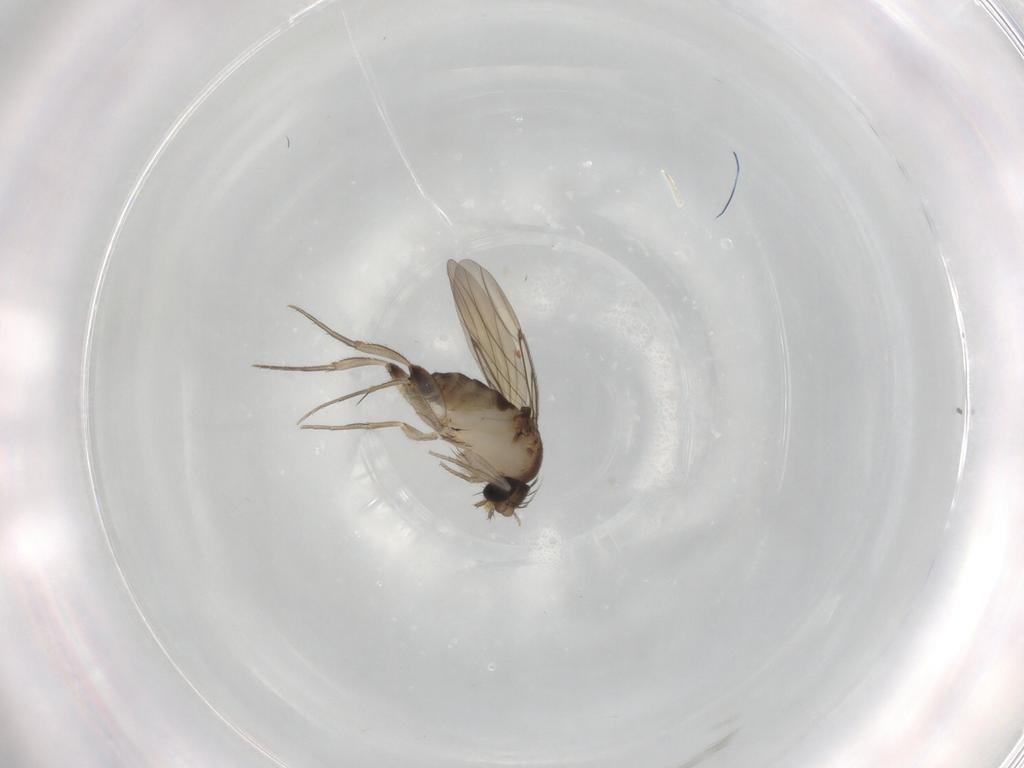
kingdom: Animalia
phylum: Arthropoda
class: Insecta
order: Diptera
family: Phoridae
